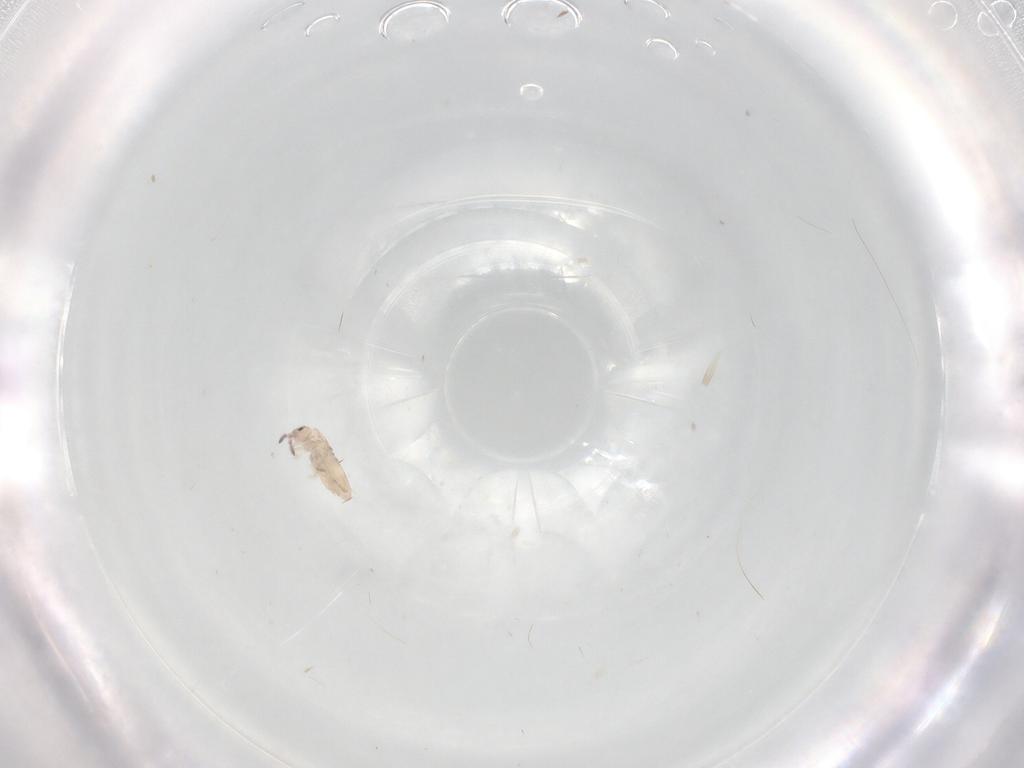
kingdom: Animalia
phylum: Arthropoda
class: Collembola
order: Entomobryomorpha
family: Entomobryidae
